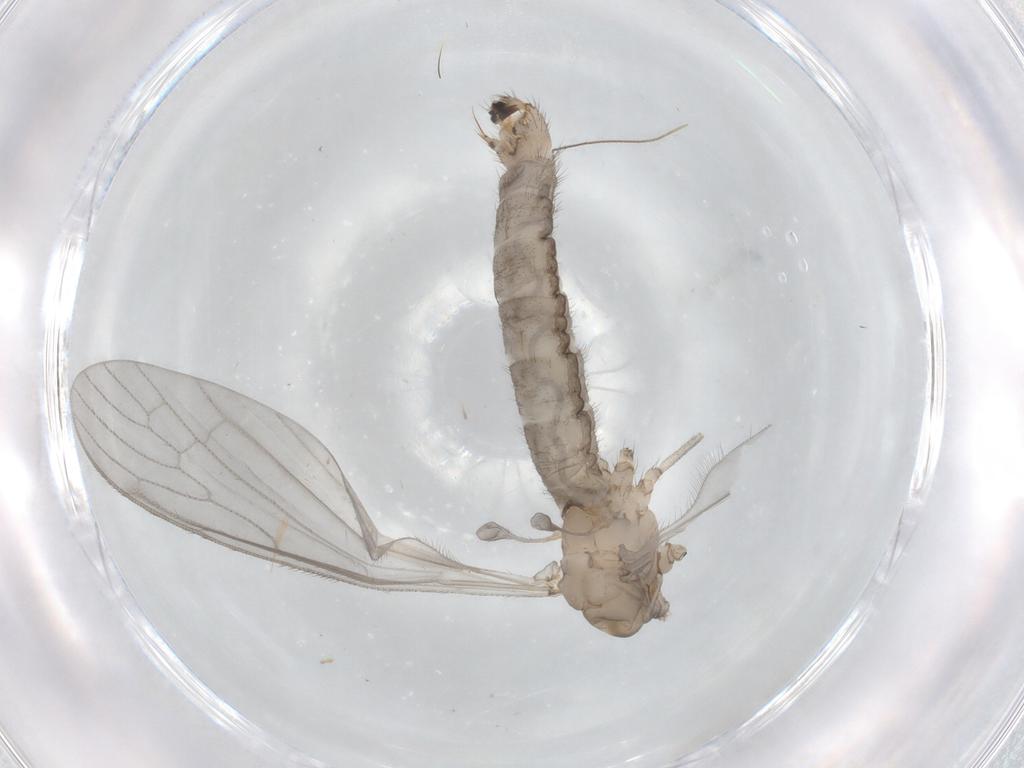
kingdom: Animalia
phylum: Arthropoda
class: Insecta
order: Diptera
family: Limoniidae
